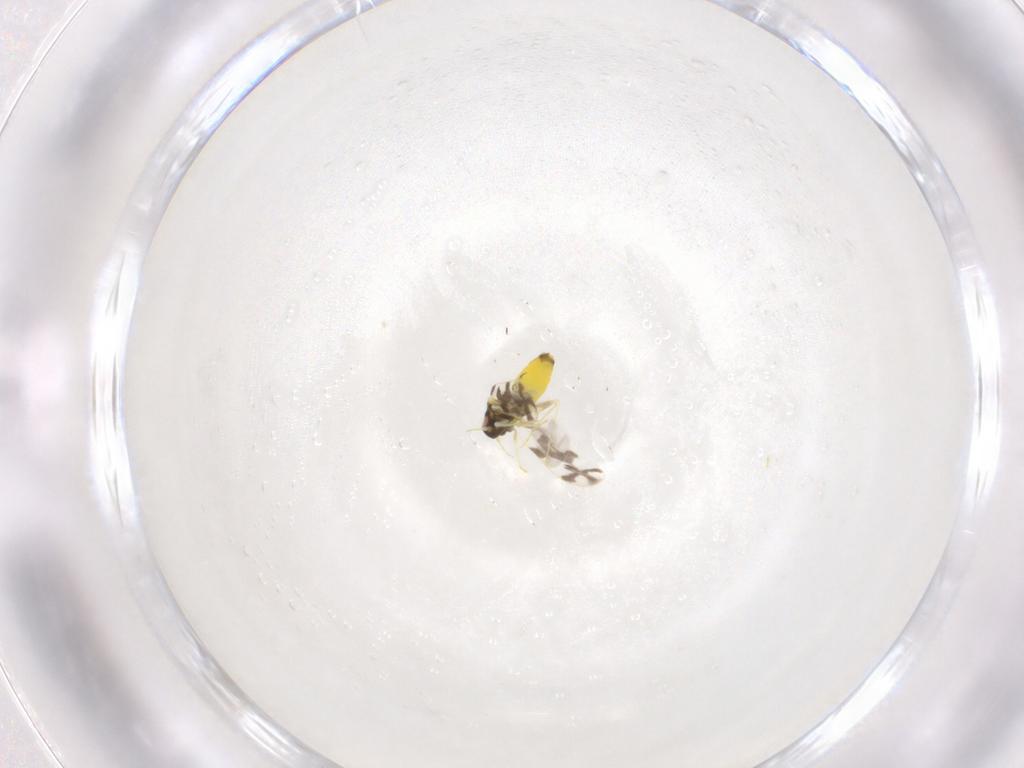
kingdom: Animalia
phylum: Arthropoda
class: Insecta
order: Hemiptera
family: Aleyrodidae
